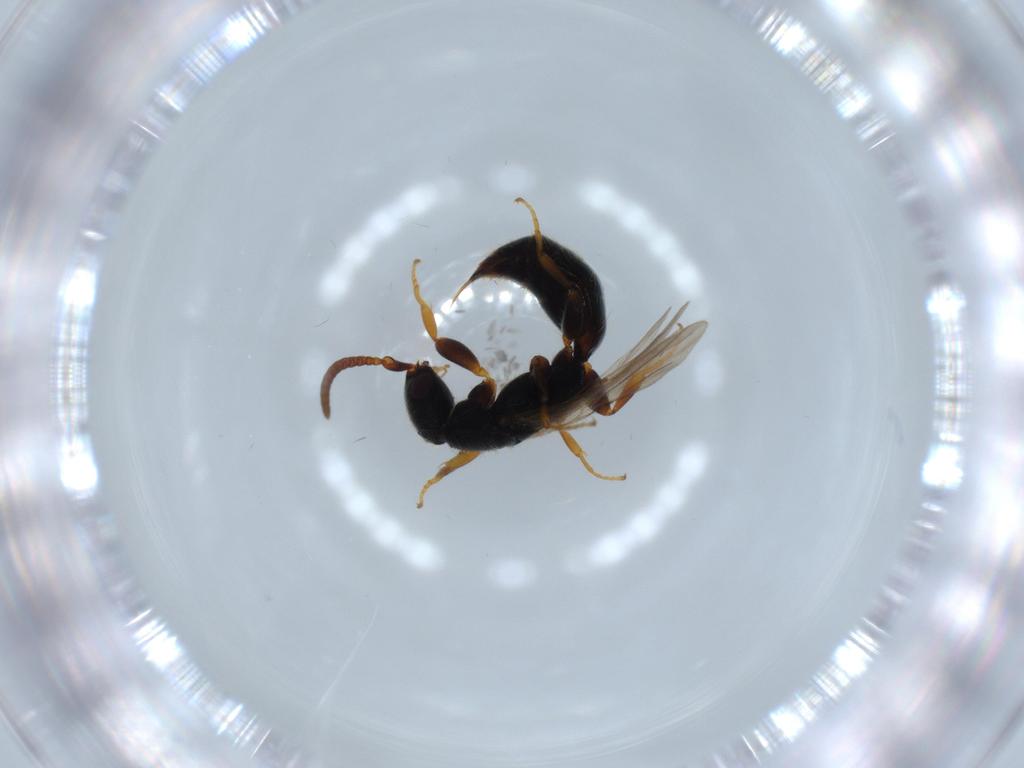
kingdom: Animalia
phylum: Arthropoda
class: Insecta
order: Hymenoptera
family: Bethylidae
